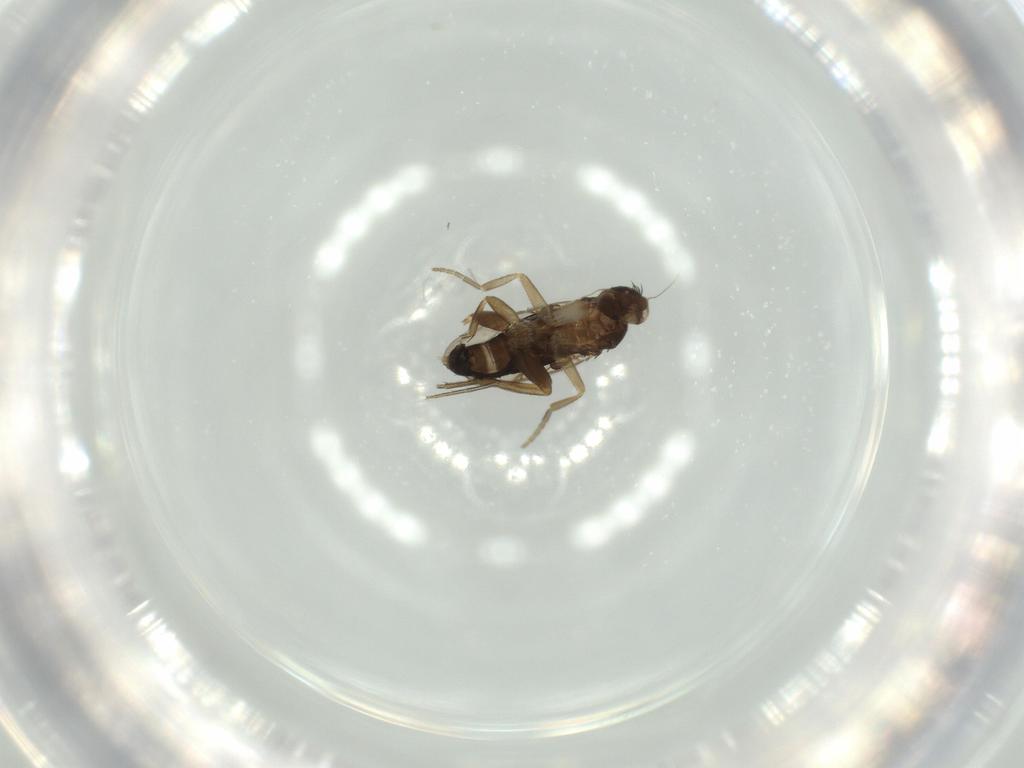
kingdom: Animalia
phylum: Arthropoda
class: Insecta
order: Diptera
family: Phoridae
